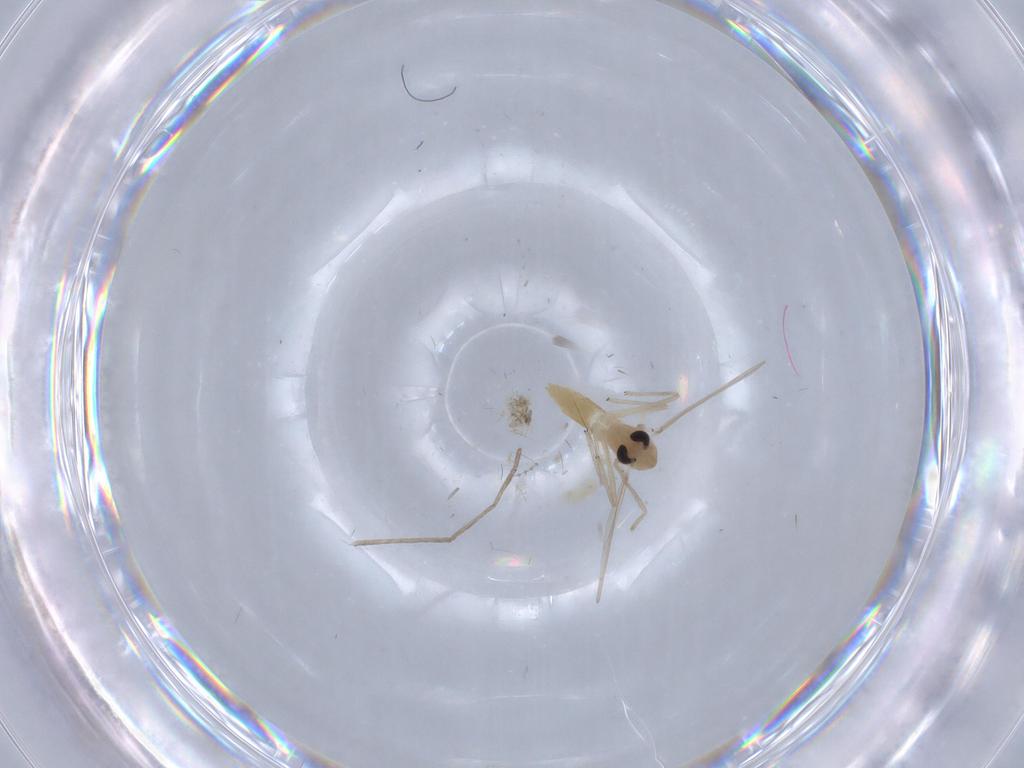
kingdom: Animalia
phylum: Arthropoda
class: Insecta
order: Diptera
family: Chironomidae
